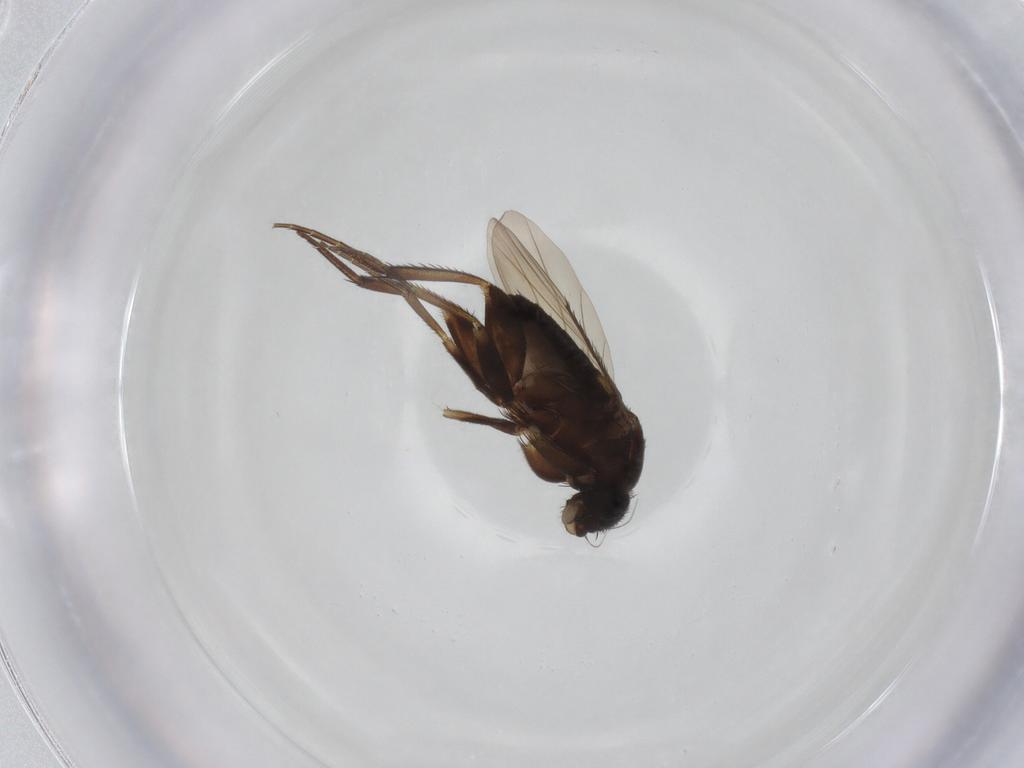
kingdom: Animalia
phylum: Arthropoda
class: Insecta
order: Diptera
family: Phoridae
